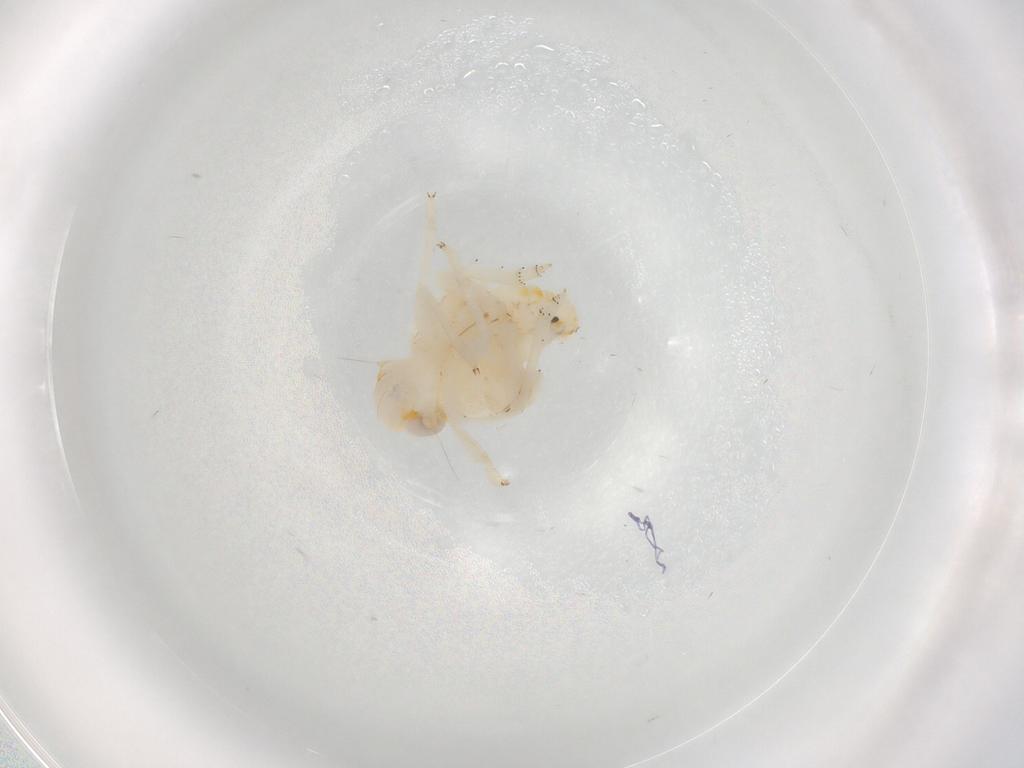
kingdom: Animalia
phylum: Arthropoda
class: Insecta
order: Hemiptera
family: Nogodinidae
